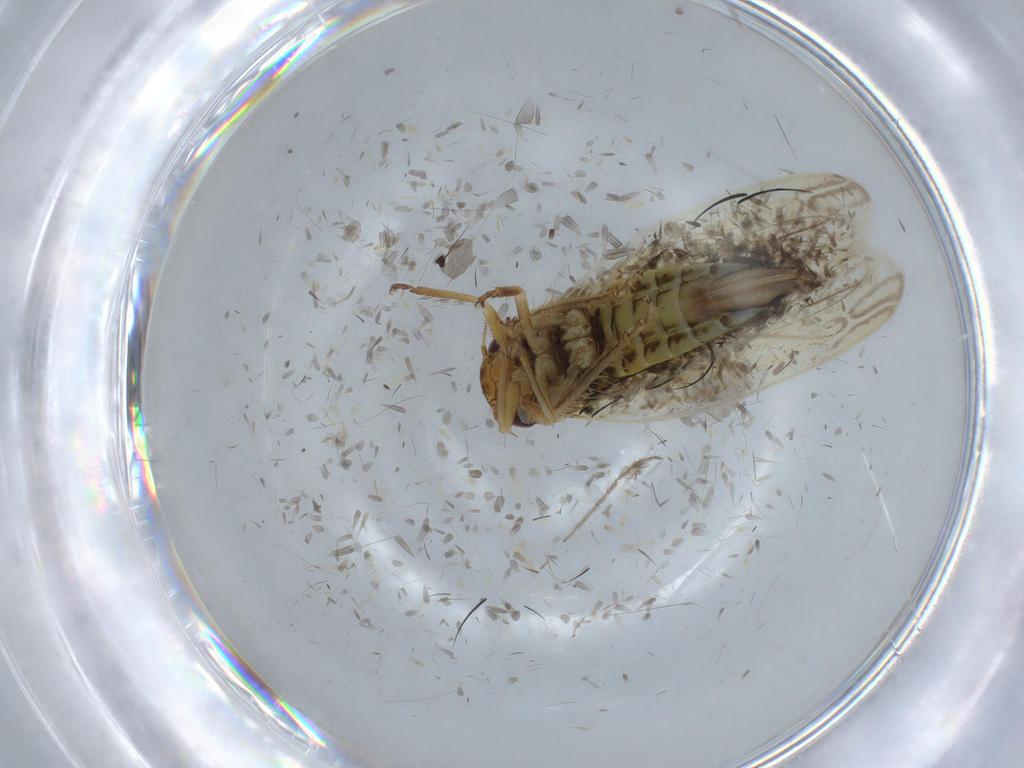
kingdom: Animalia
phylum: Arthropoda
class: Insecta
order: Hemiptera
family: Cicadellidae
